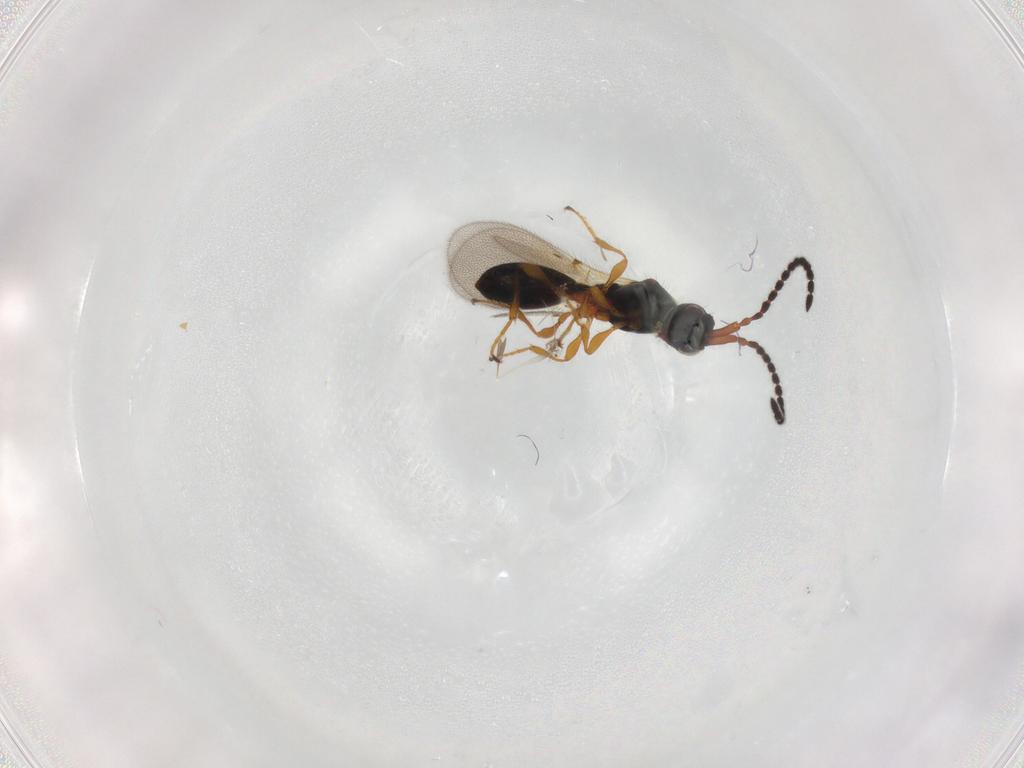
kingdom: Animalia
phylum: Arthropoda
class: Insecta
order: Hymenoptera
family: Diapriidae
